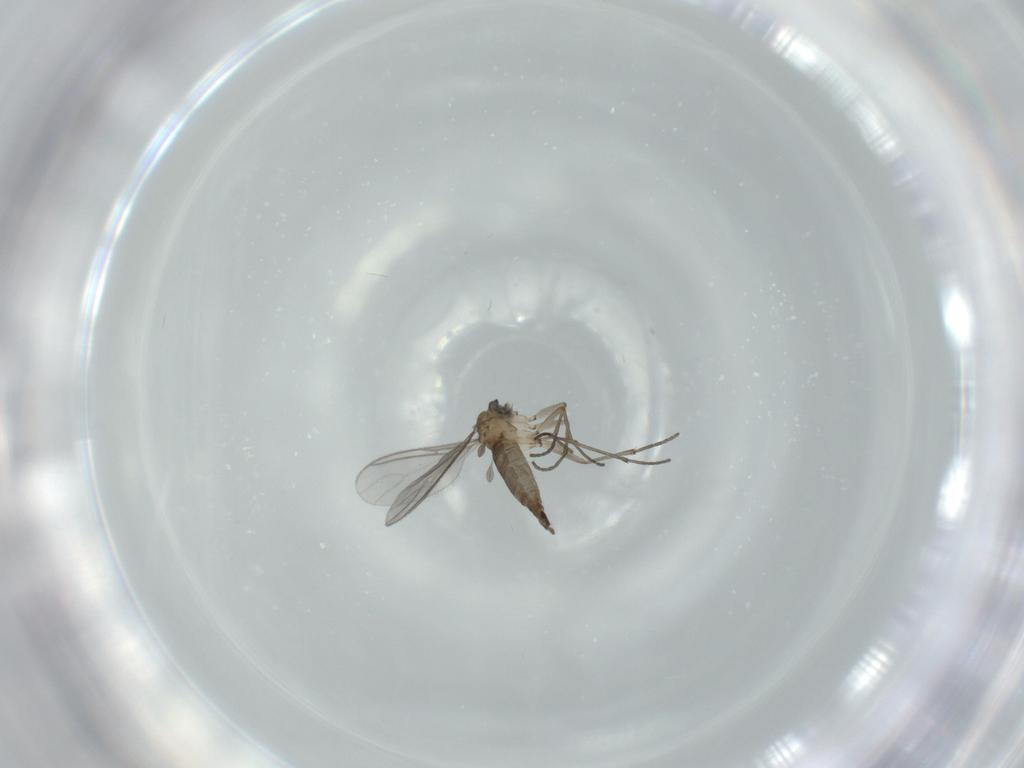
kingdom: Animalia
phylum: Arthropoda
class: Insecta
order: Diptera
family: Sciaridae
